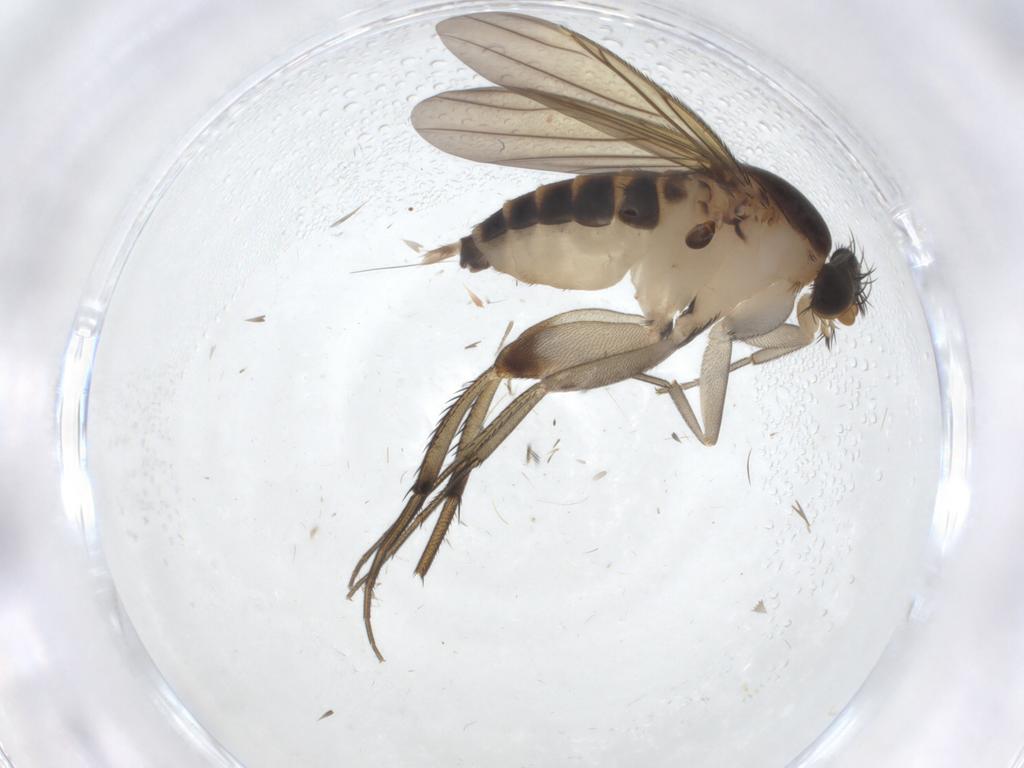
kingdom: Animalia
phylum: Arthropoda
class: Insecta
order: Diptera
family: Phoridae
